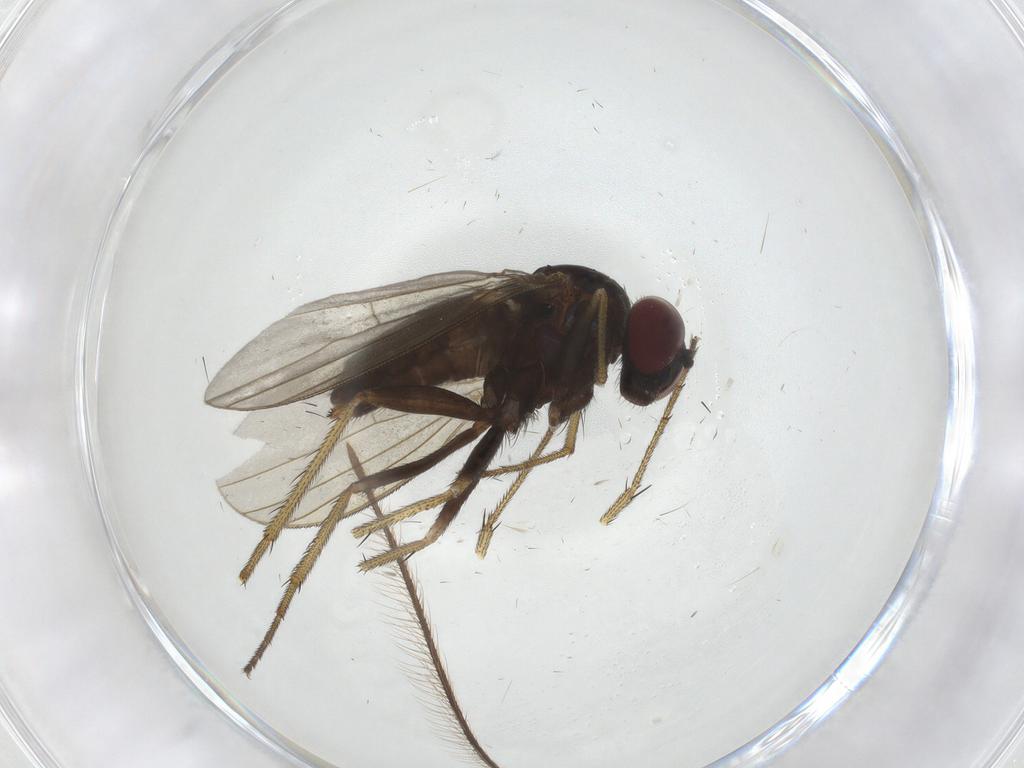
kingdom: Animalia
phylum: Arthropoda
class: Insecta
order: Diptera
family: Dolichopodidae
